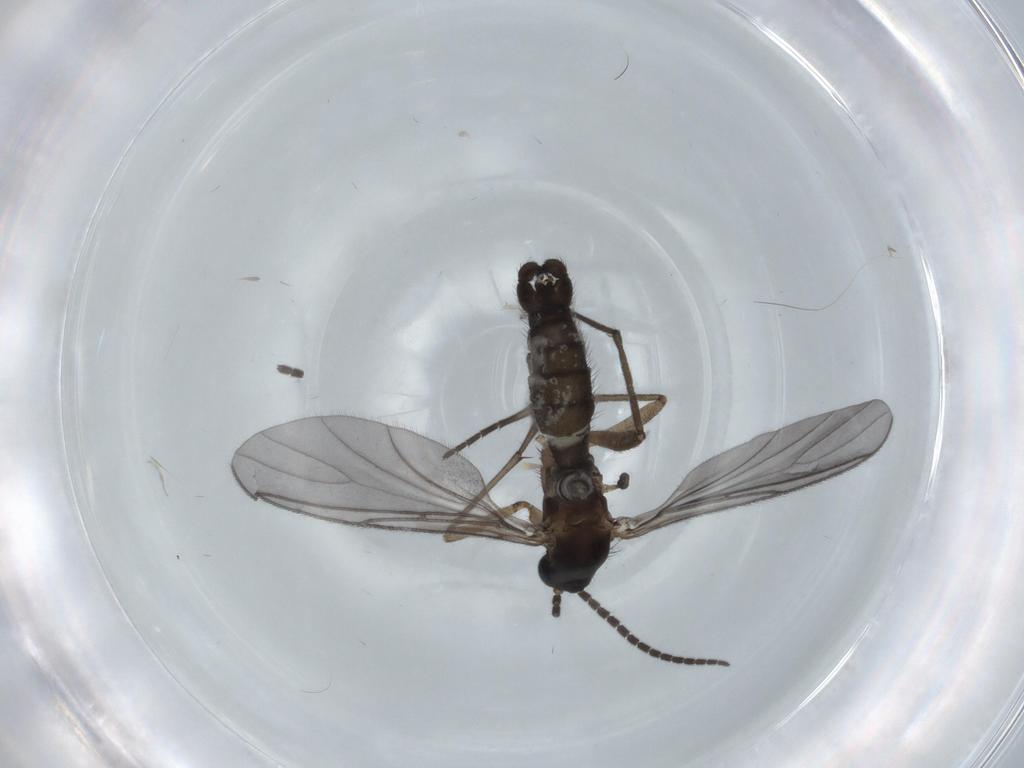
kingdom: Animalia
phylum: Arthropoda
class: Insecta
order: Diptera
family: Sciaridae
